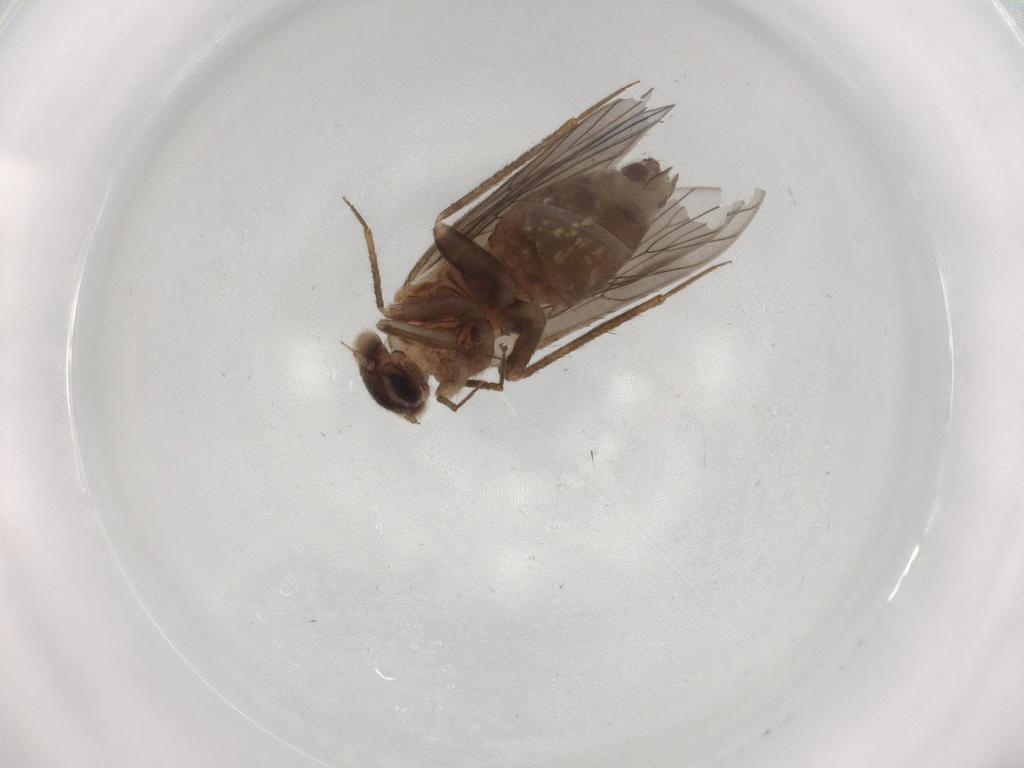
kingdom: Animalia
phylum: Arthropoda
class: Insecta
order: Psocodea
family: Lepidopsocidae
